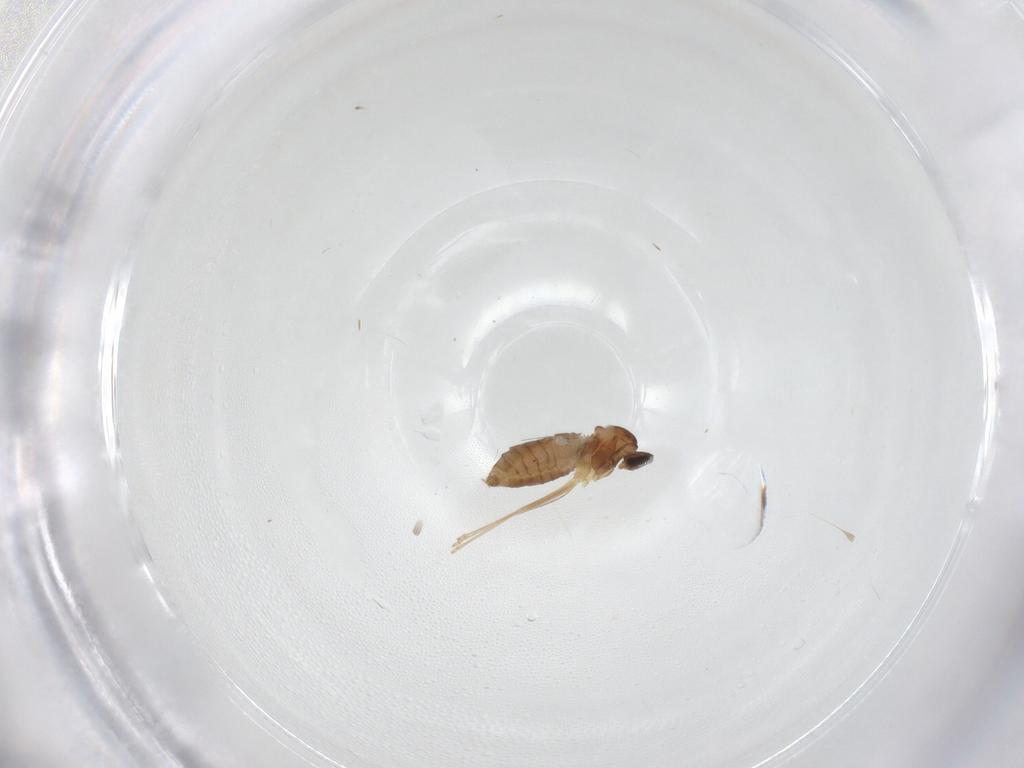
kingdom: Animalia
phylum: Arthropoda
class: Insecta
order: Diptera
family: Cecidomyiidae
